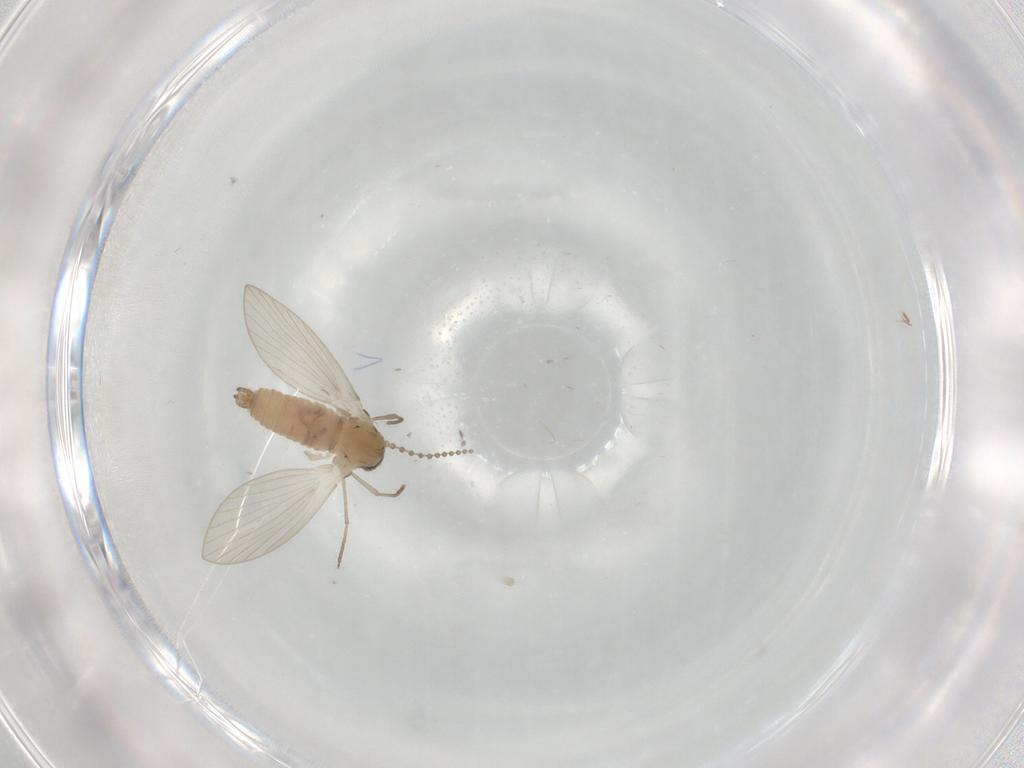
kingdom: Animalia
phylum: Arthropoda
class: Insecta
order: Diptera
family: Psychodidae
